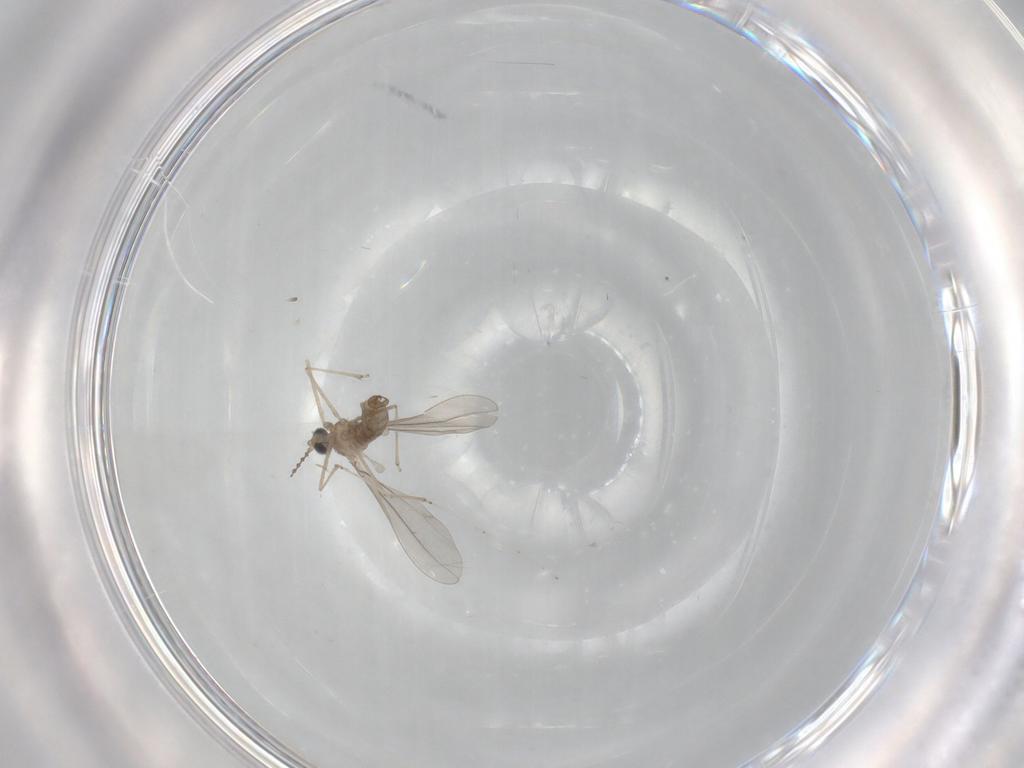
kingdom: Animalia
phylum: Arthropoda
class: Insecta
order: Diptera
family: Cecidomyiidae
